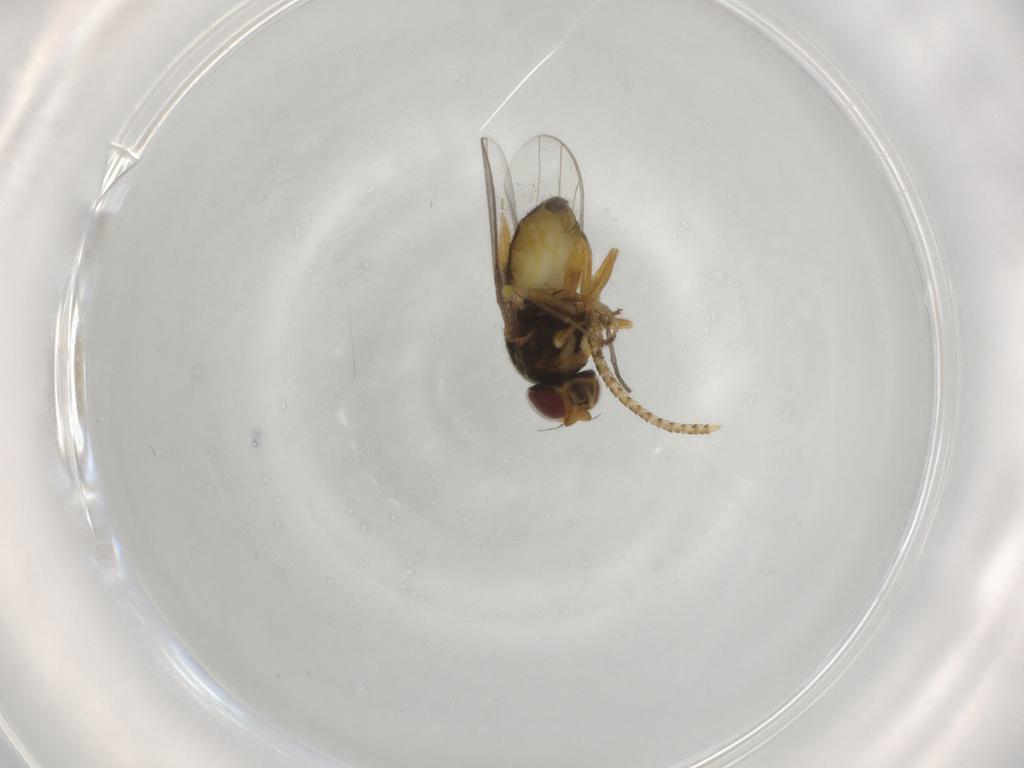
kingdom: Animalia
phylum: Arthropoda
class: Insecta
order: Diptera
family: Chloropidae
